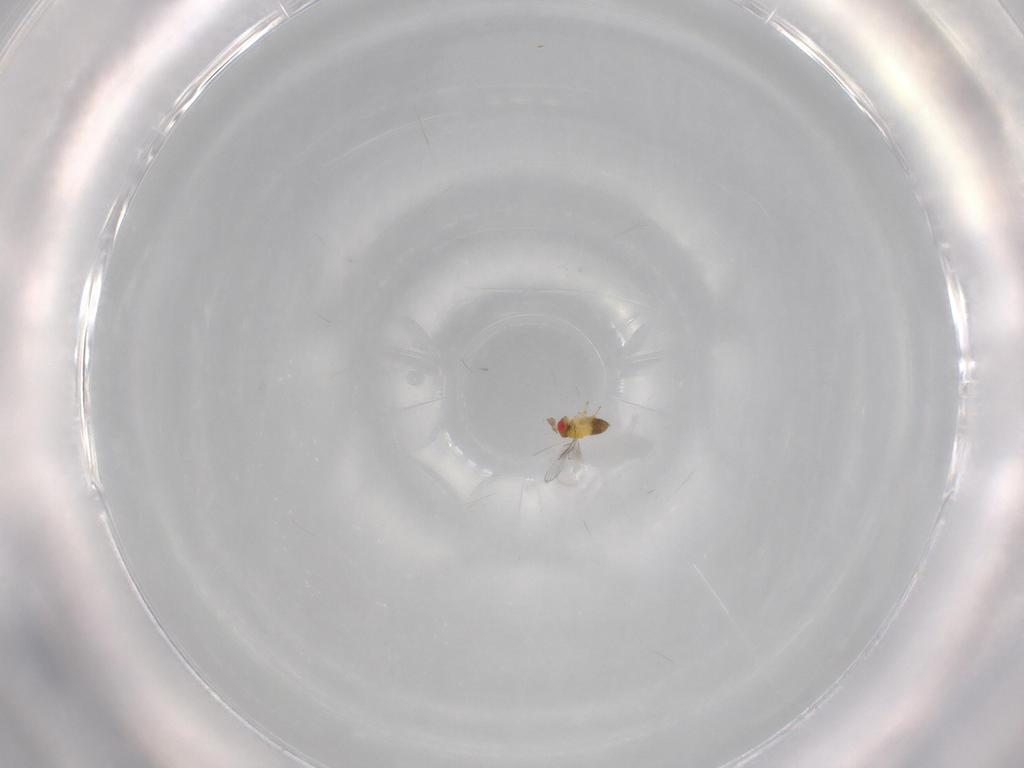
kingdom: Animalia
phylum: Arthropoda
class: Insecta
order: Hymenoptera
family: Trichogrammatidae
